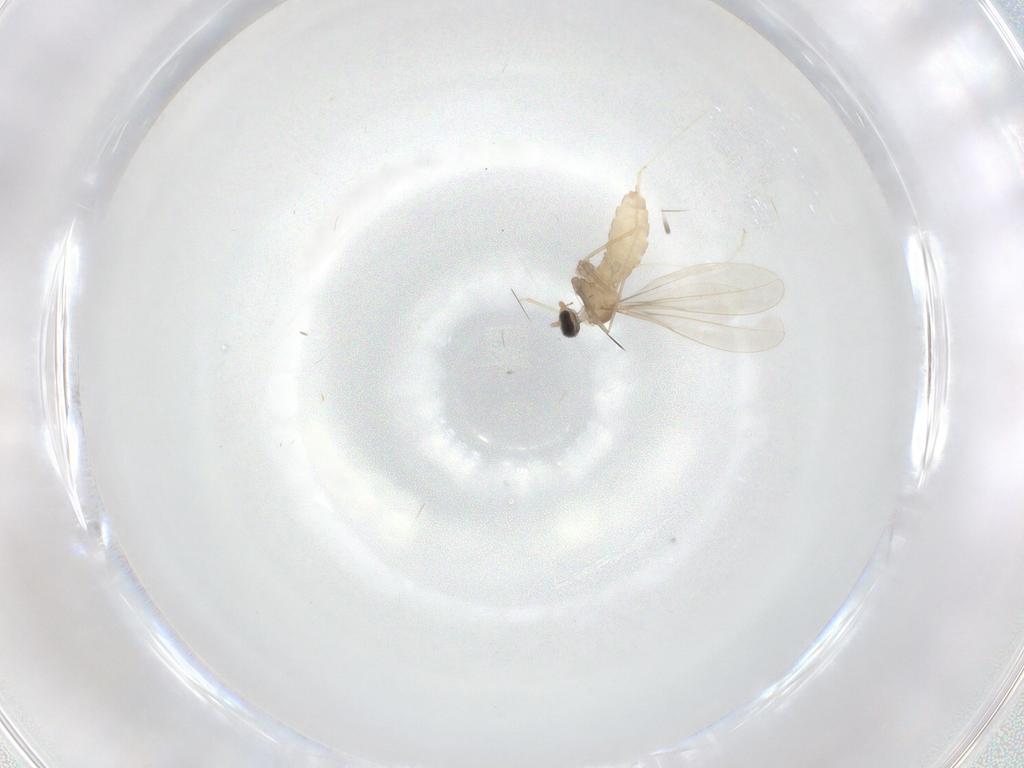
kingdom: Animalia
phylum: Arthropoda
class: Insecta
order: Diptera
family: Cecidomyiidae
